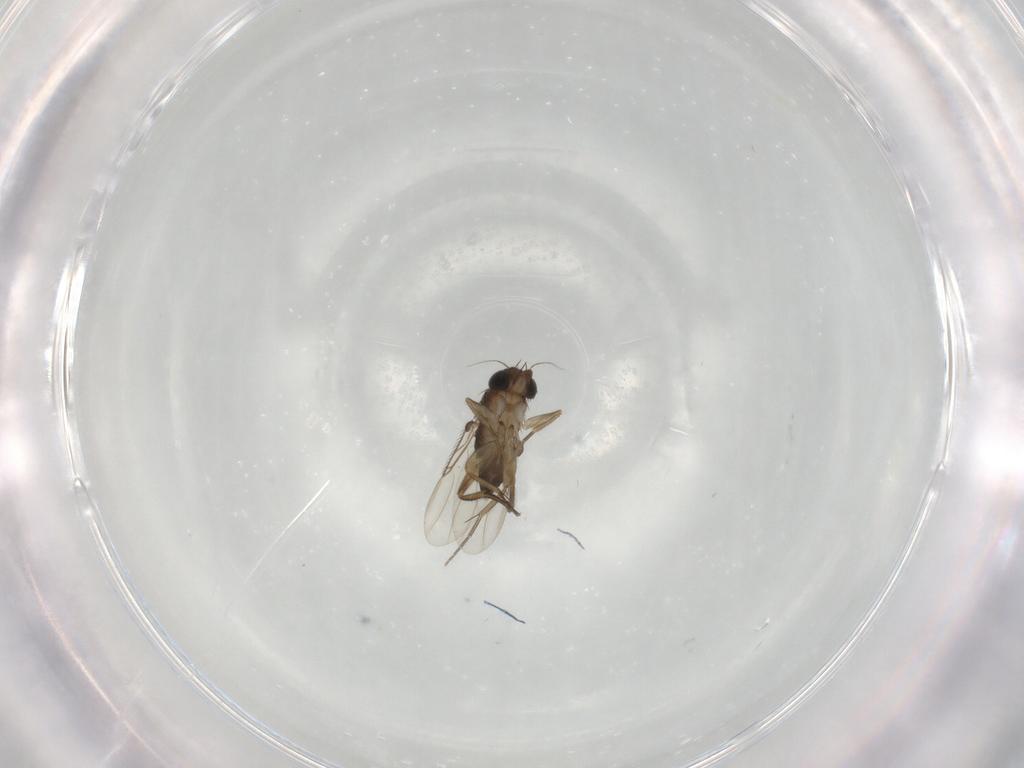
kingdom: Animalia
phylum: Arthropoda
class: Insecta
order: Diptera
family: Phoridae
